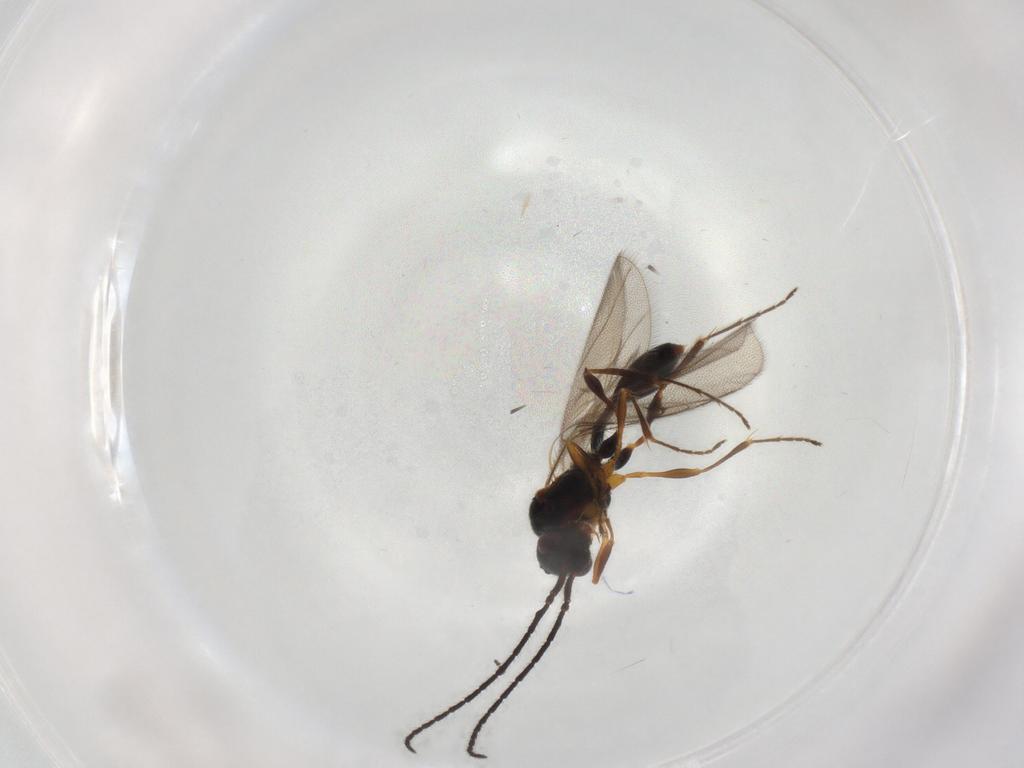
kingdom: Animalia
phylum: Arthropoda
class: Insecta
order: Hymenoptera
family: Diapriidae
